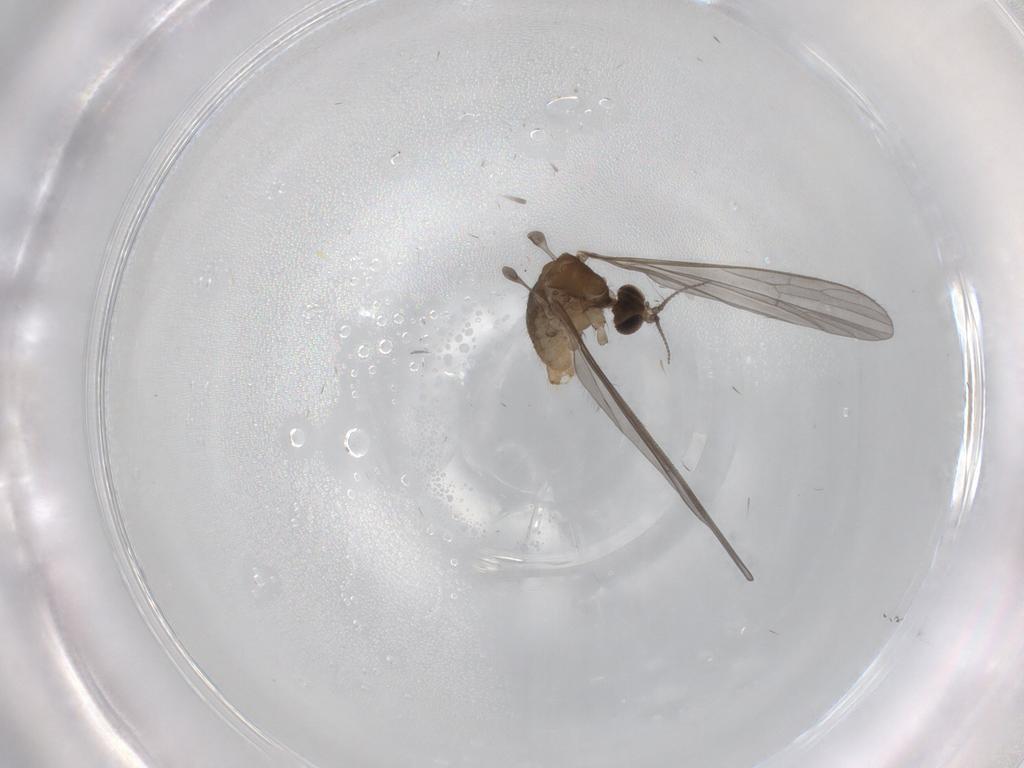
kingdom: Animalia
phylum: Arthropoda
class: Insecta
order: Diptera
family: Limoniidae
